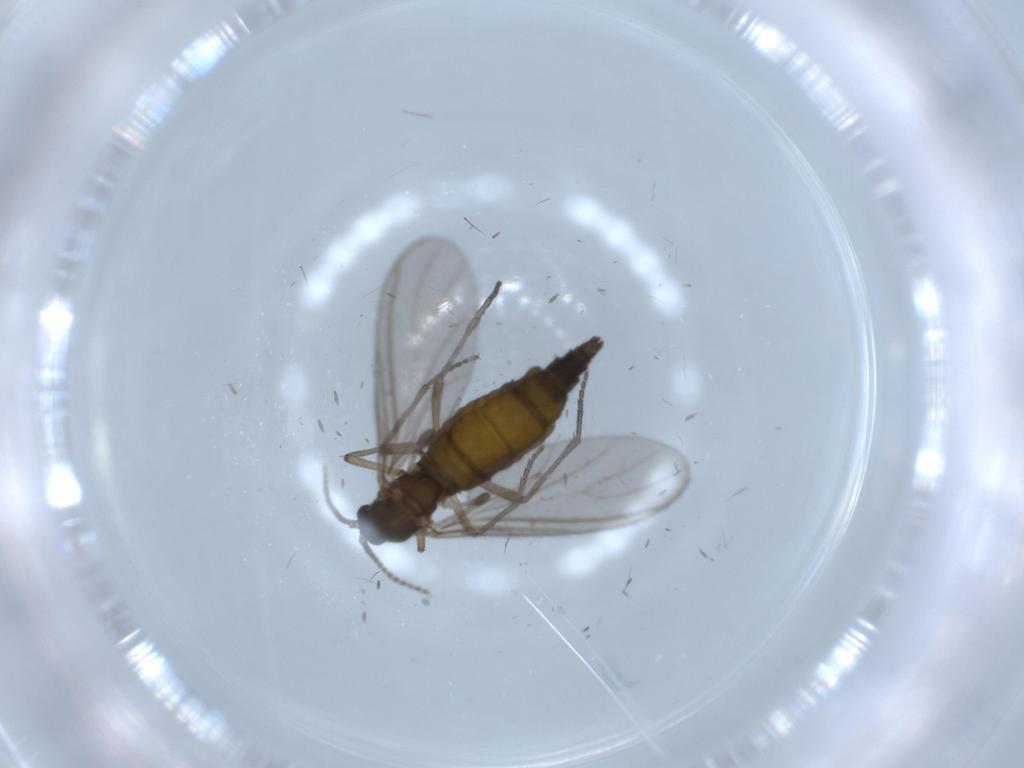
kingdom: Animalia
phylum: Arthropoda
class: Insecta
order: Diptera
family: Sciaridae
